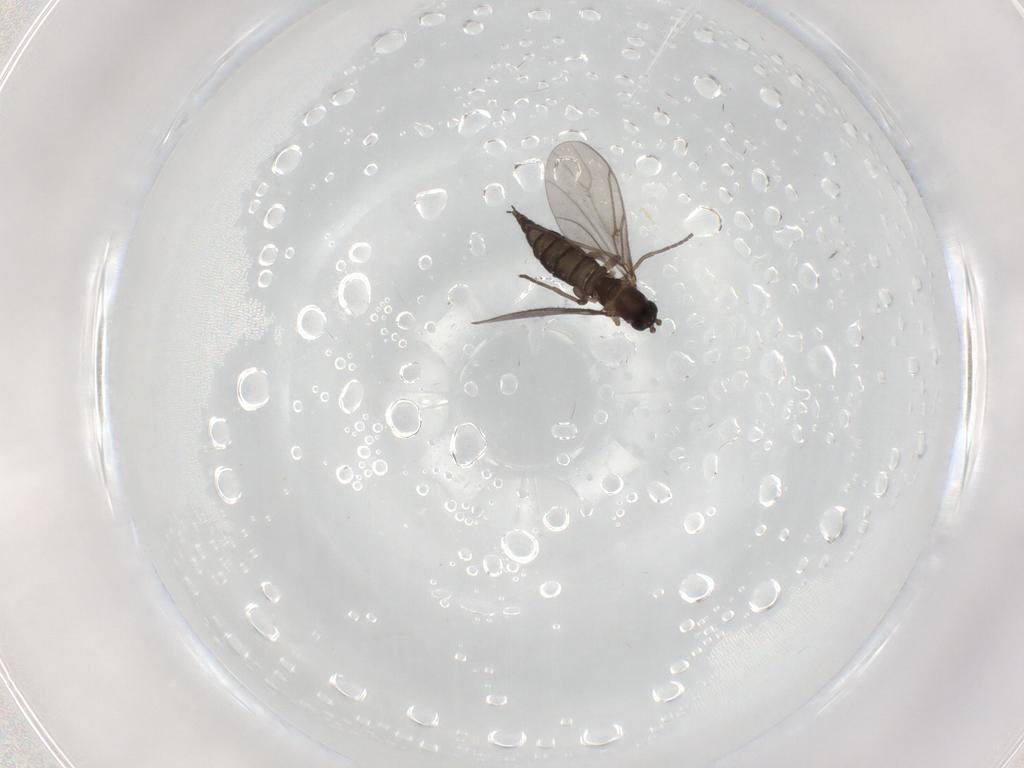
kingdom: Animalia
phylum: Arthropoda
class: Insecta
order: Diptera
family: Sciaridae
